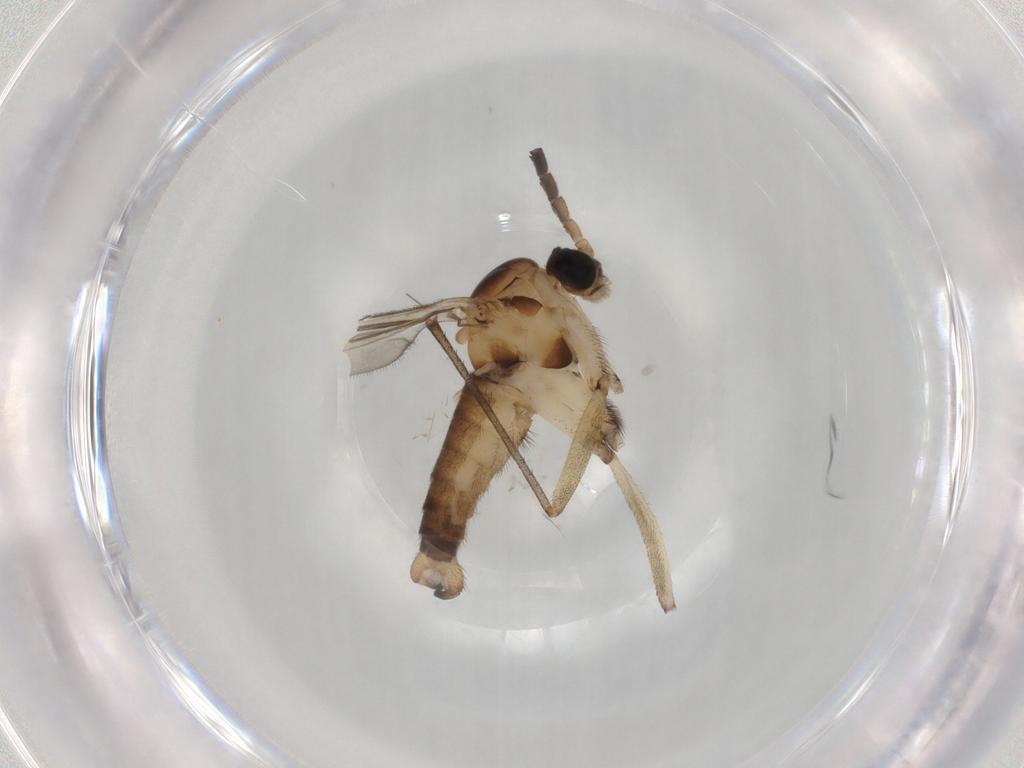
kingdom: Animalia
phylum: Arthropoda
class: Insecta
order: Diptera
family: Sciaridae
